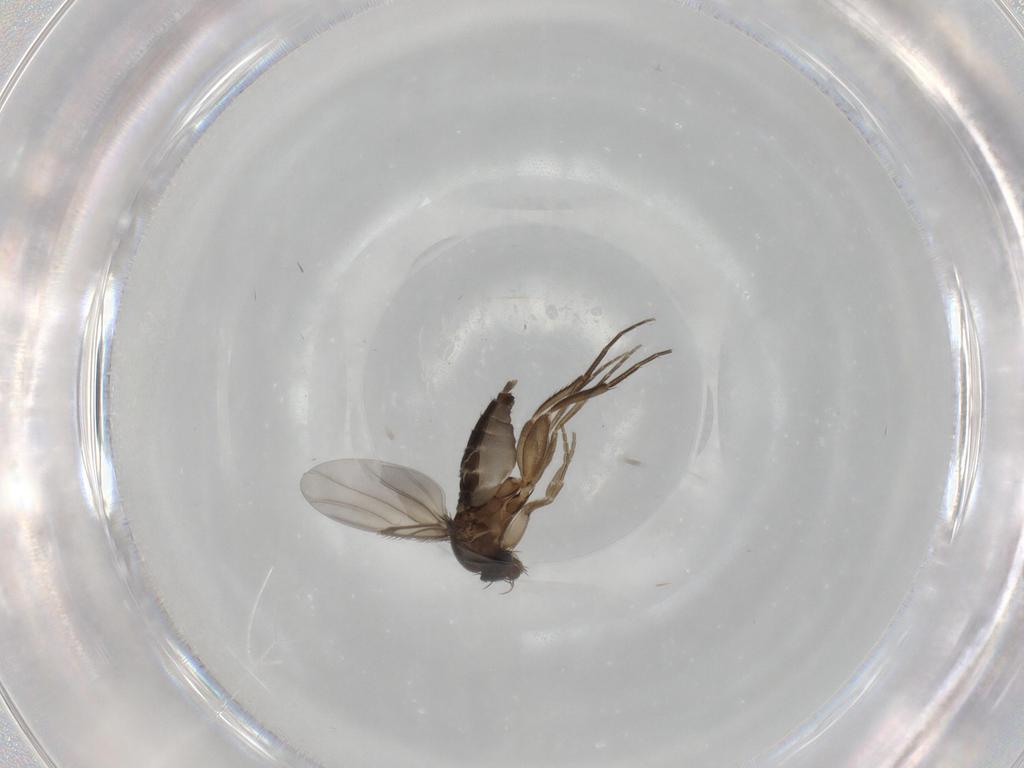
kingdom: Animalia
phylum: Arthropoda
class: Insecta
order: Diptera
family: Phoridae
